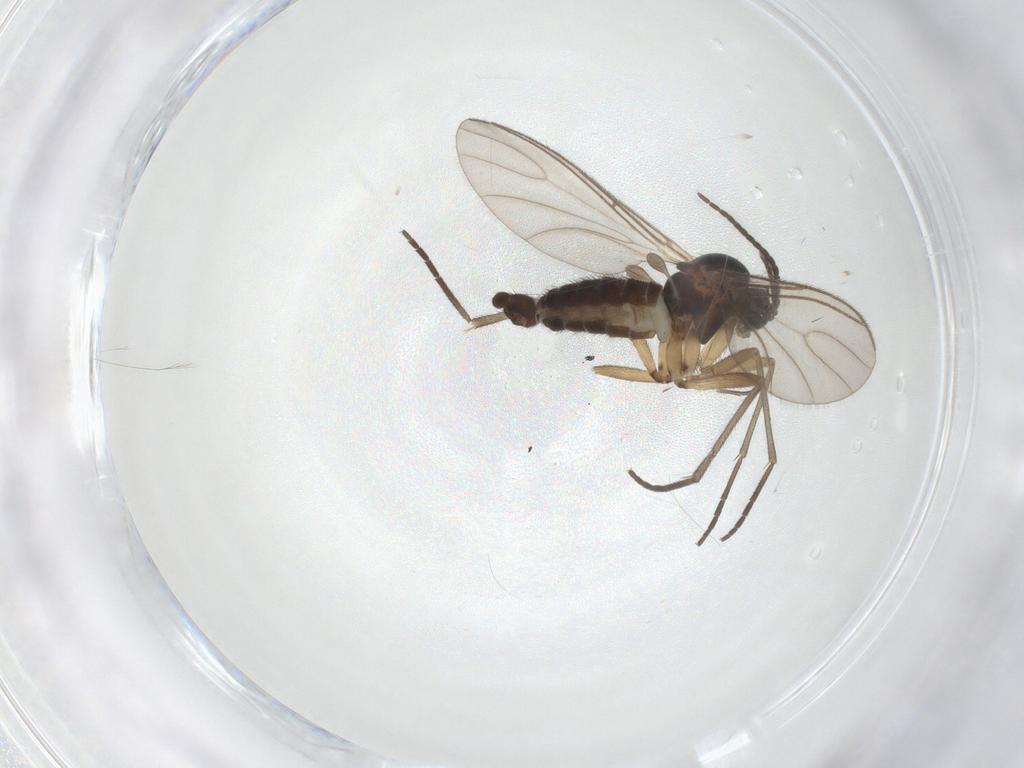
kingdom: Animalia
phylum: Arthropoda
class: Insecta
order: Diptera
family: Sciaridae
